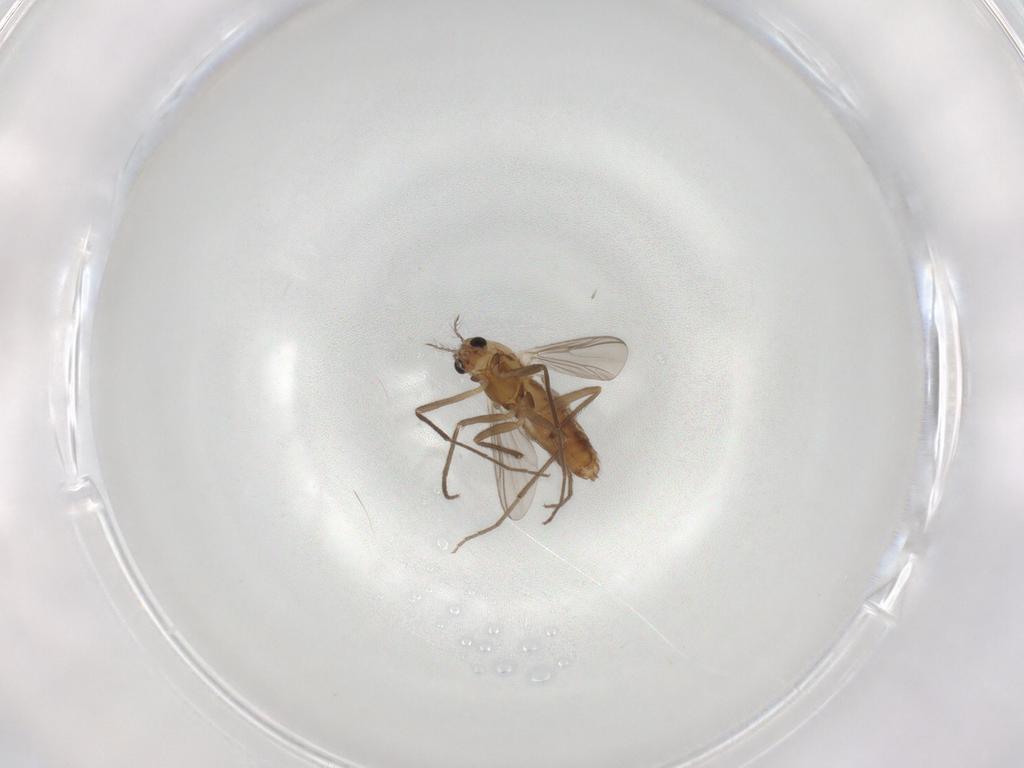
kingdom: Animalia
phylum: Arthropoda
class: Insecta
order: Diptera
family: Chironomidae
